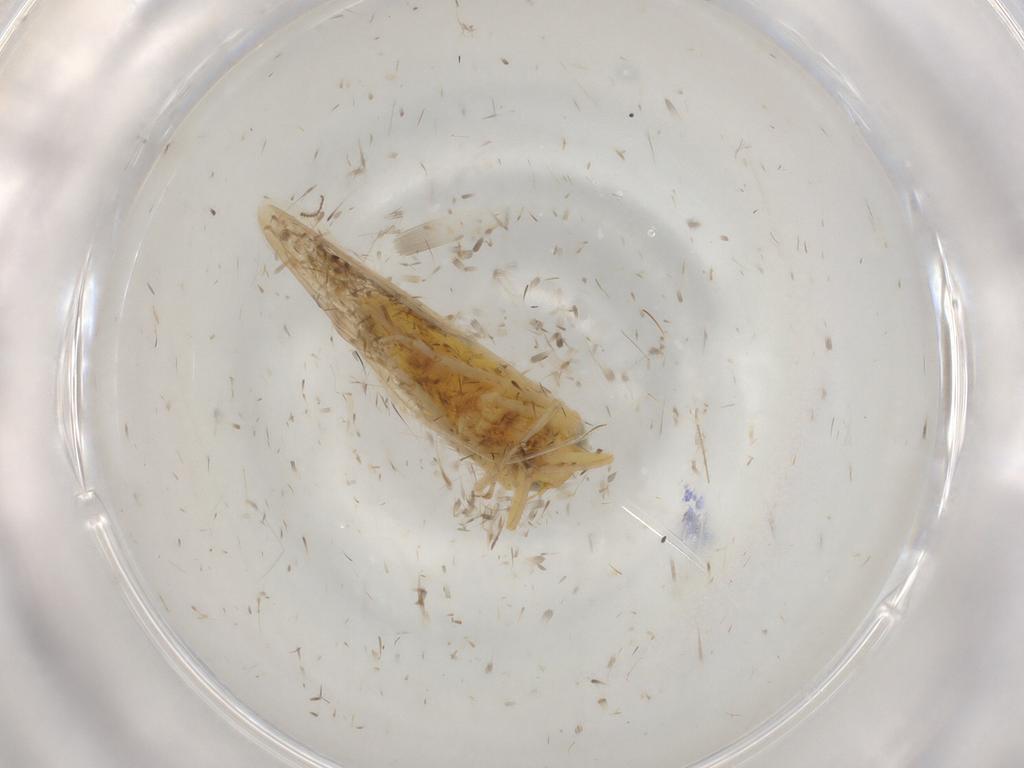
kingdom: Animalia
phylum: Arthropoda
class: Insecta
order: Hemiptera
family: Cicadellidae
